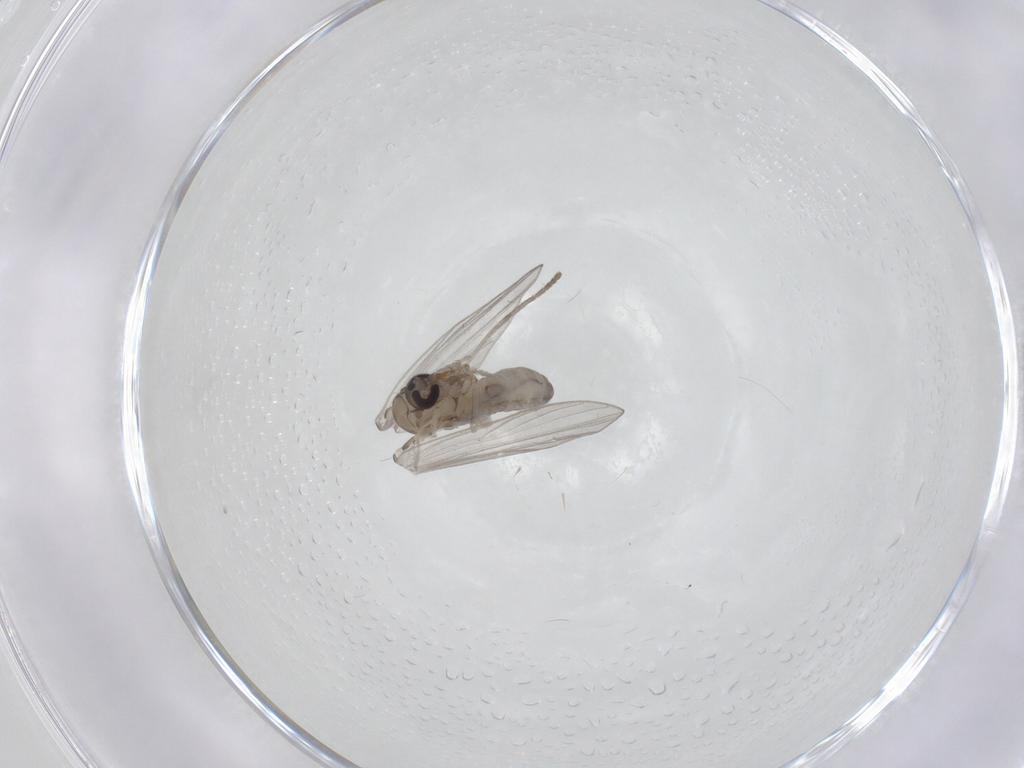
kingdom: Animalia
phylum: Arthropoda
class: Insecta
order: Diptera
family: Psychodidae
